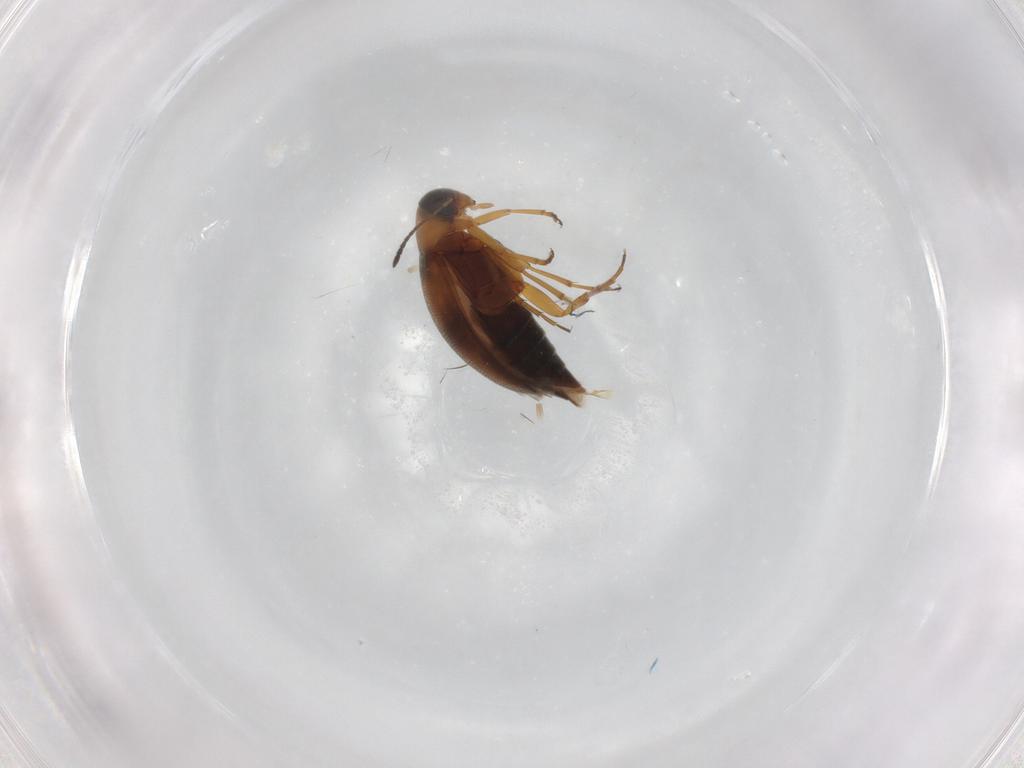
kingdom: Animalia
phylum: Arthropoda
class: Insecta
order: Coleoptera
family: Scraptiidae
